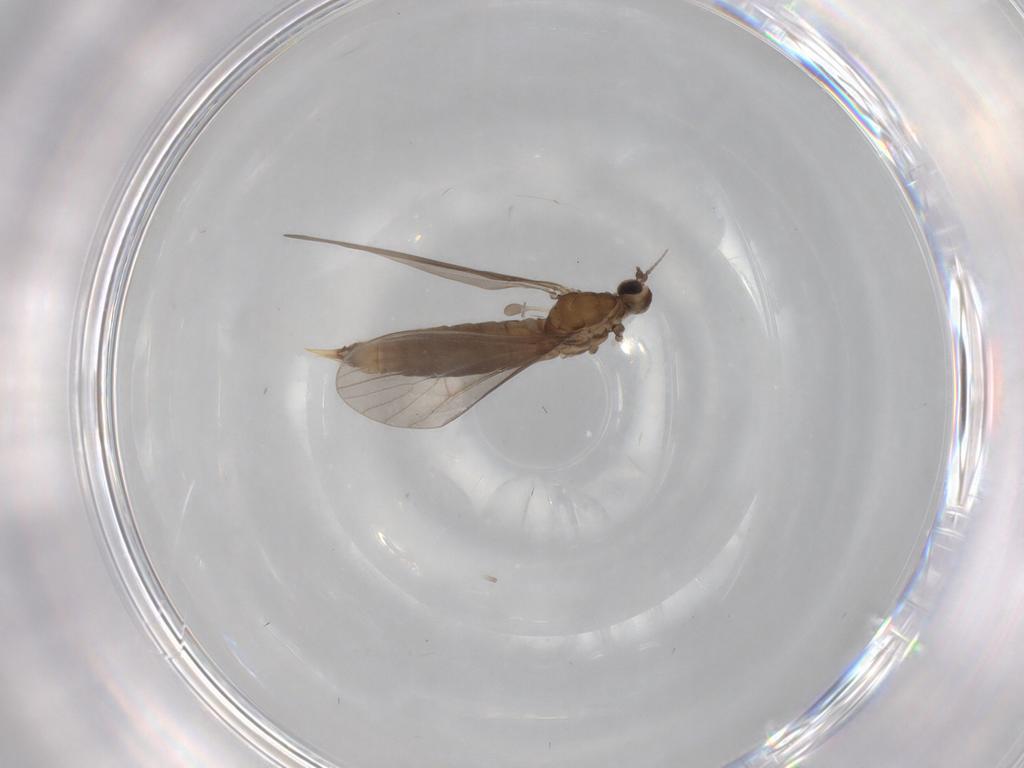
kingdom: Animalia
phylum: Arthropoda
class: Insecta
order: Diptera
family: Limoniidae
